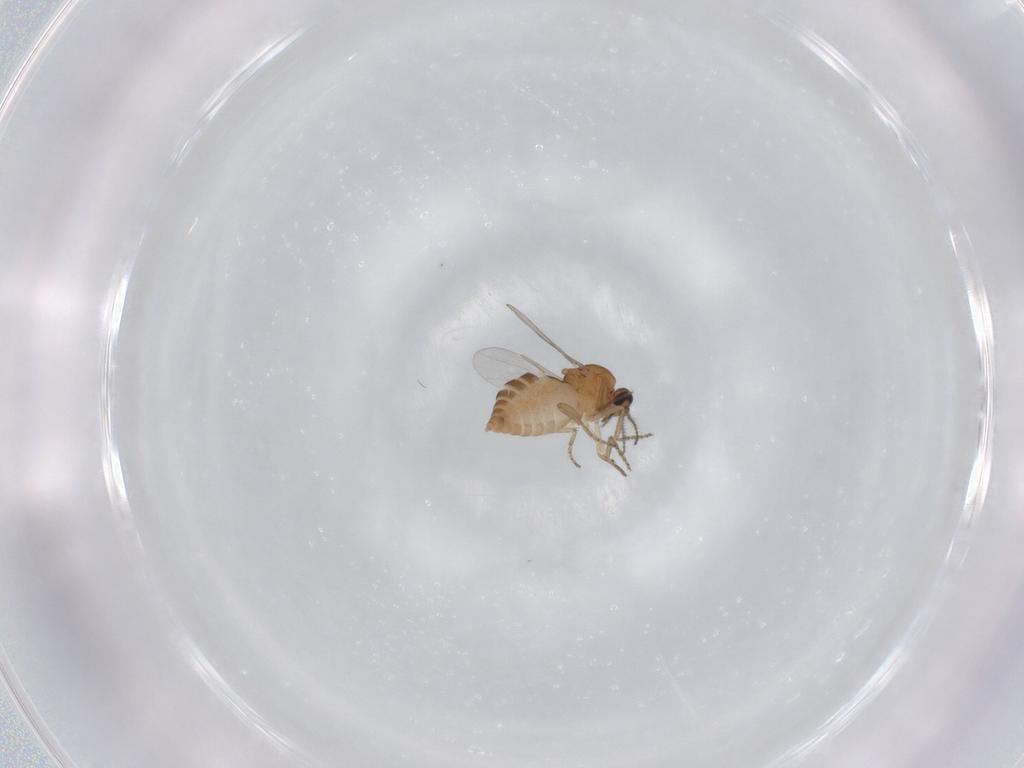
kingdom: Animalia
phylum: Arthropoda
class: Insecta
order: Diptera
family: Ceratopogonidae
